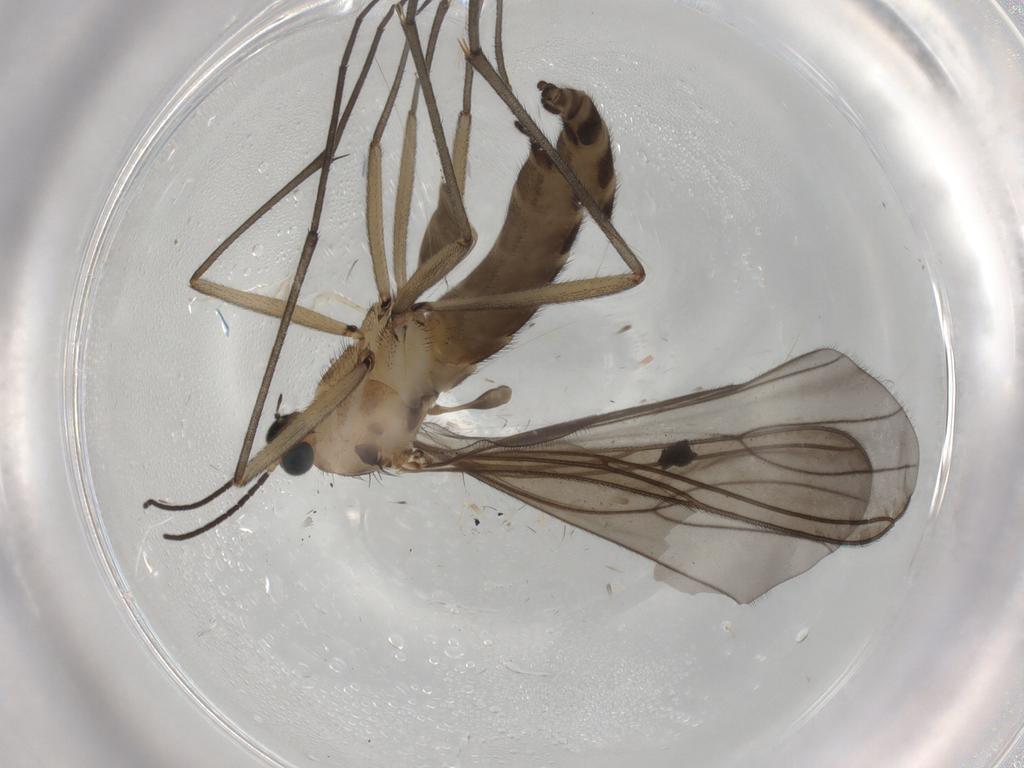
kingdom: Animalia
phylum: Arthropoda
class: Insecta
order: Diptera
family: Sciaridae
